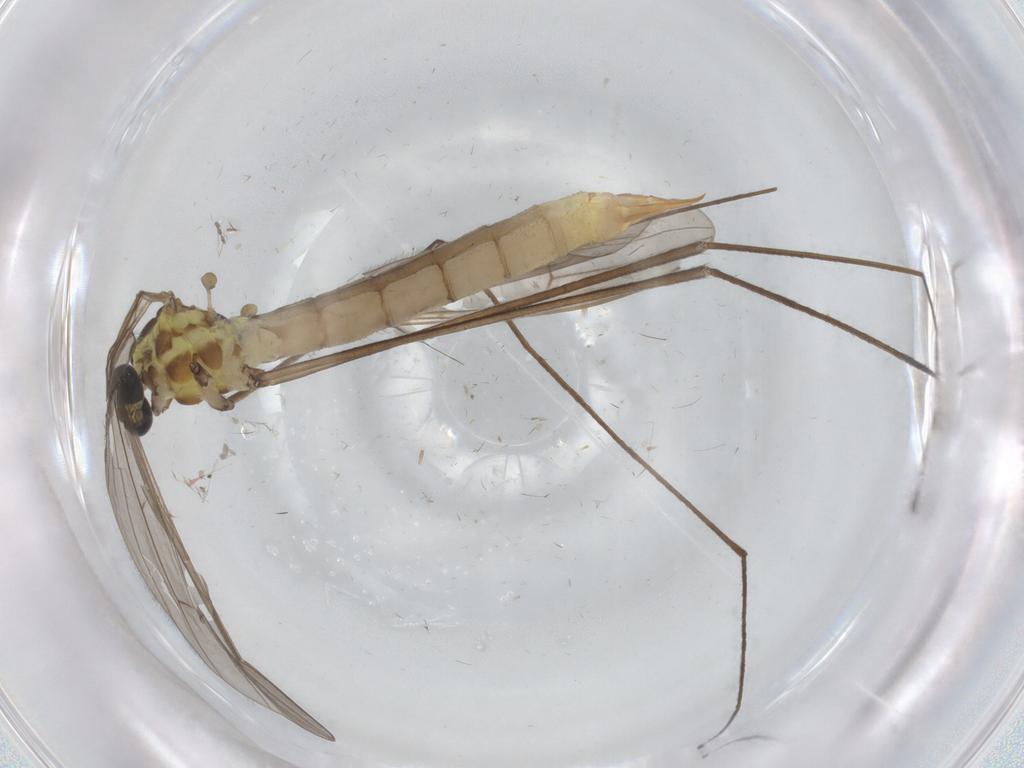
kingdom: Animalia
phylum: Arthropoda
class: Insecta
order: Diptera
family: Limoniidae
